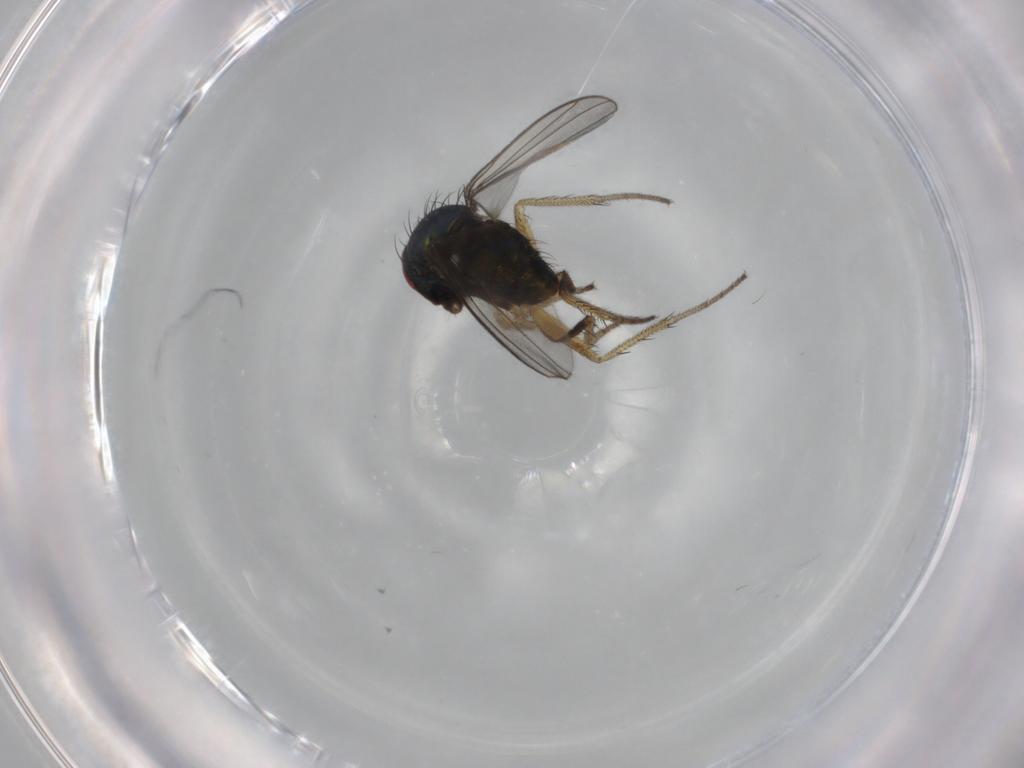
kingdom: Animalia
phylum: Arthropoda
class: Insecta
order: Diptera
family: Dolichopodidae
